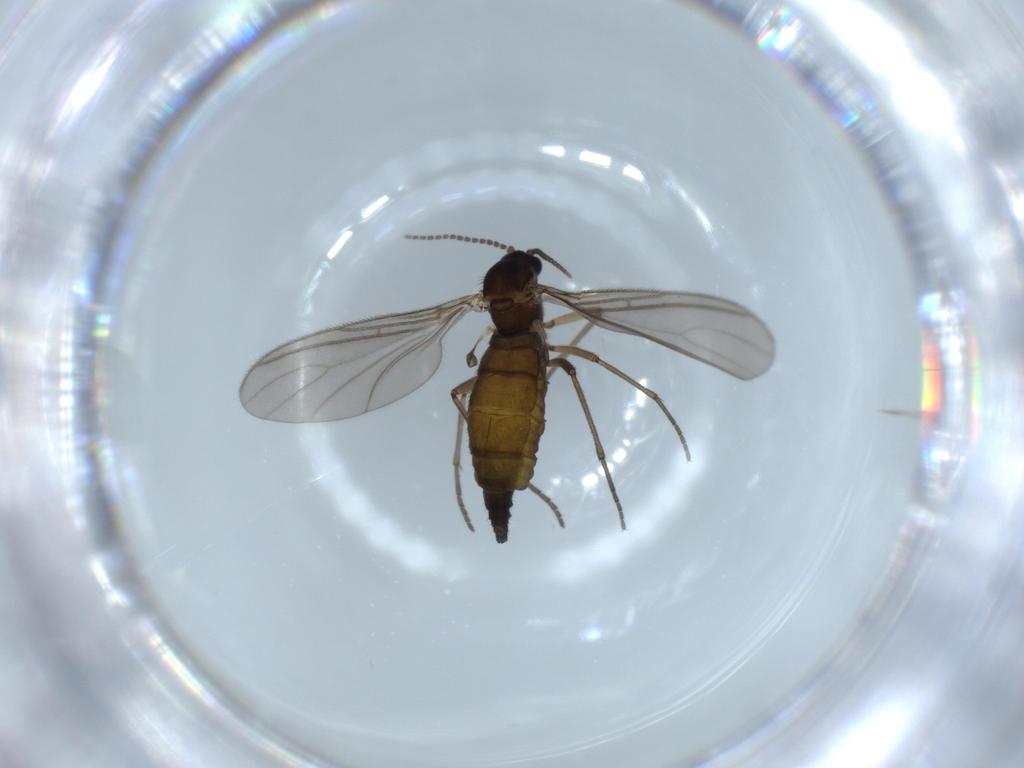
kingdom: Animalia
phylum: Arthropoda
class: Insecta
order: Diptera
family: Sciaridae
